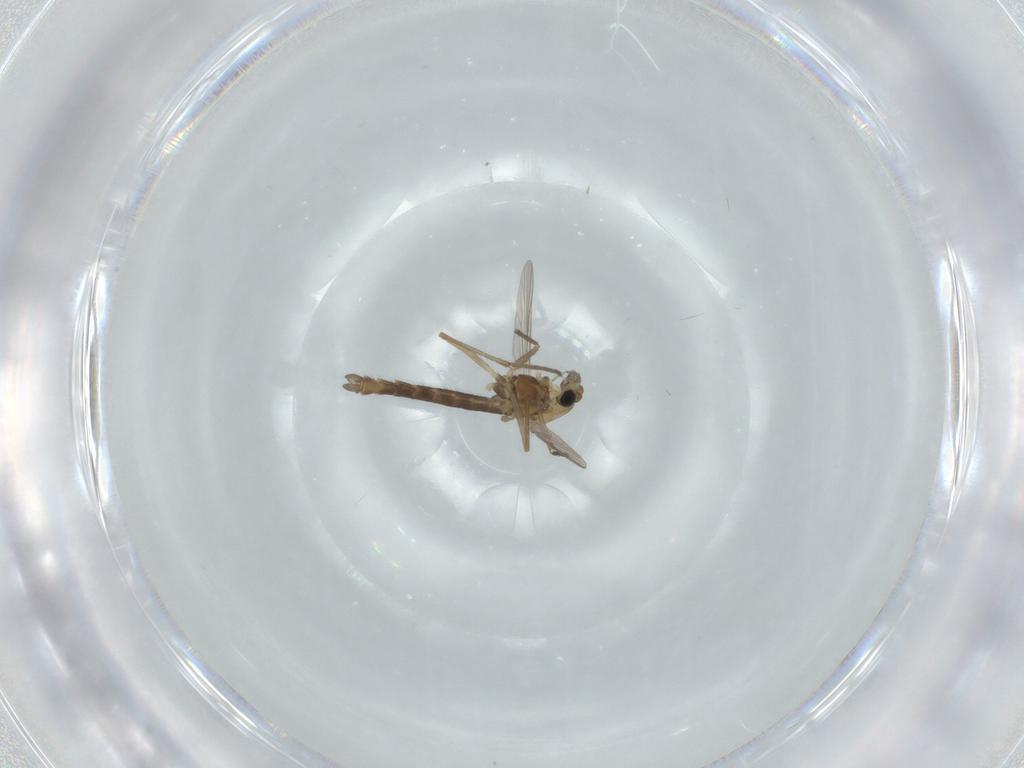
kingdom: Animalia
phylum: Arthropoda
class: Insecta
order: Diptera
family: Chironomidae
